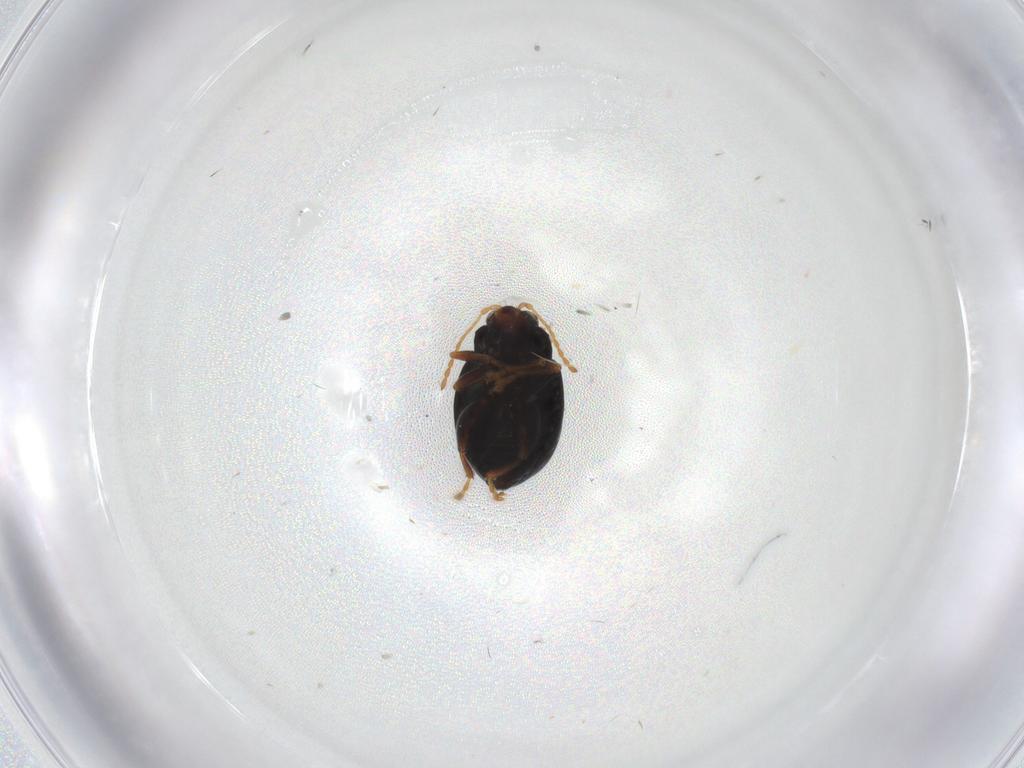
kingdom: Animalia
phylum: Arthropoda
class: Insecta
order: Coleoptera
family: Chrysomelidae
